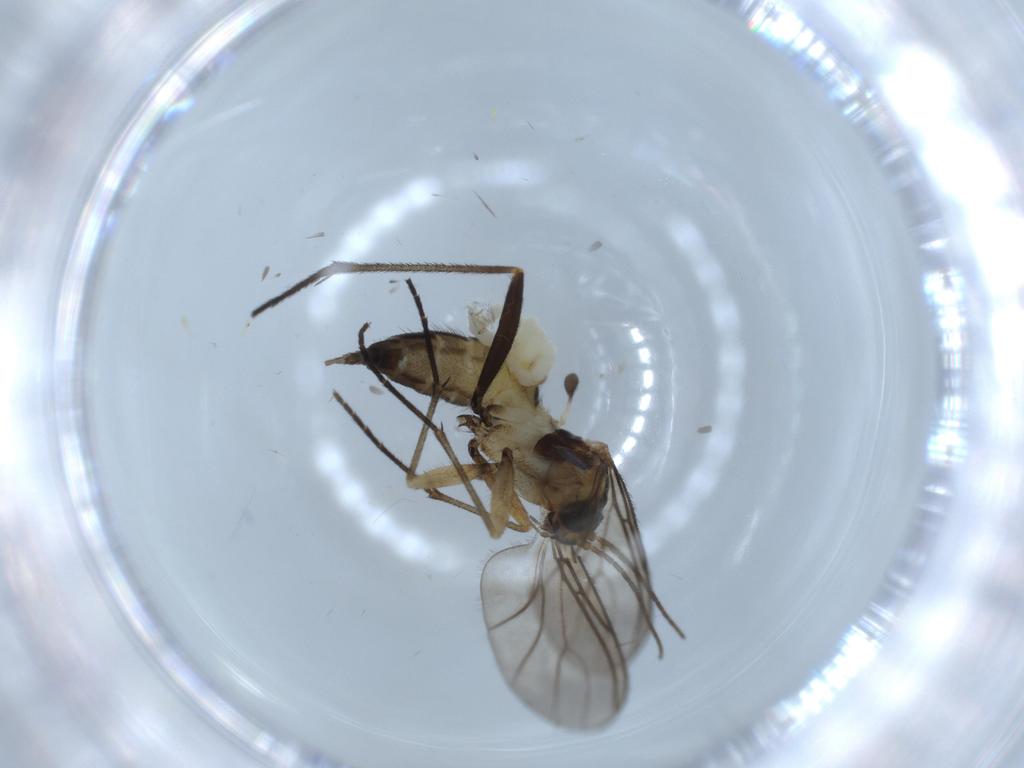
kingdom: Animalia
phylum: Arthropoda
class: Insecta
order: Diptera
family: Sciaridae
